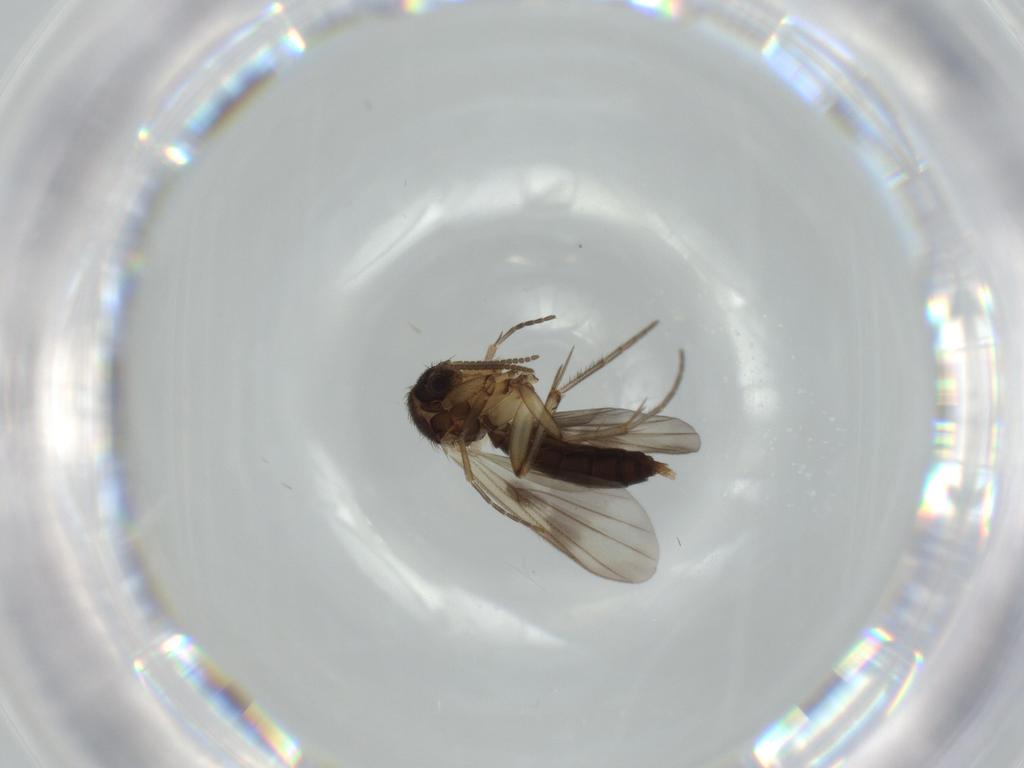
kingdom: Animalia
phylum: Arthropoda
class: Insecta
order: Diptera
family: Sciaridae
